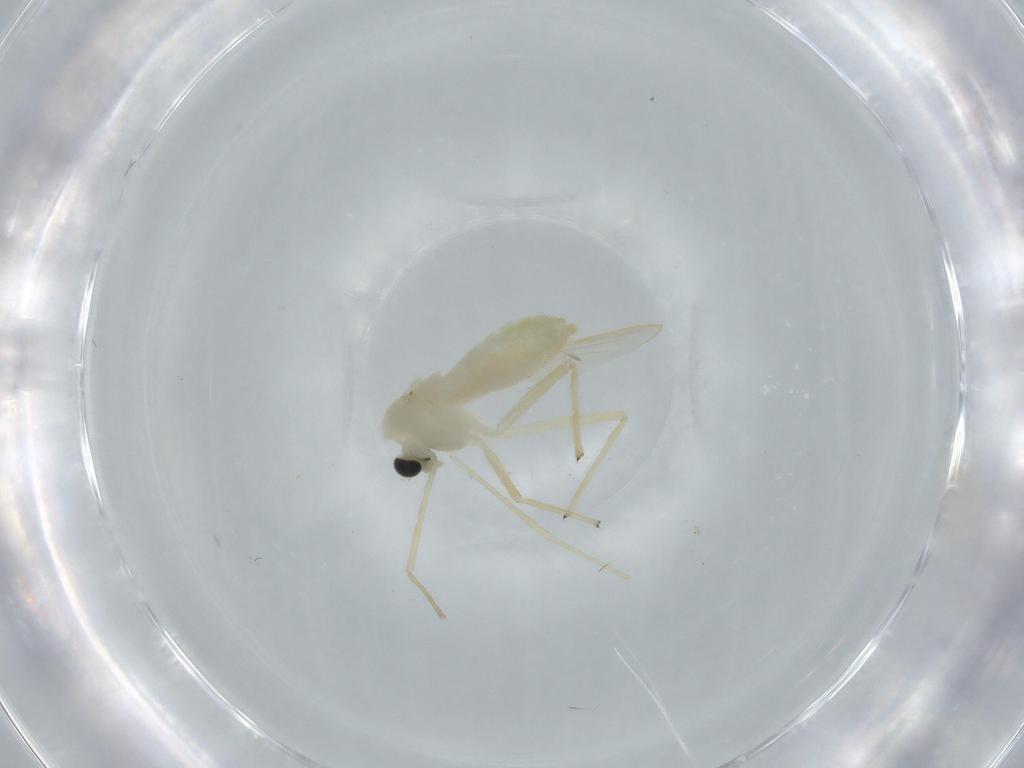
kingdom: Animalia
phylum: Arthropoda
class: Insecta
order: Diptera
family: Chironomidae
